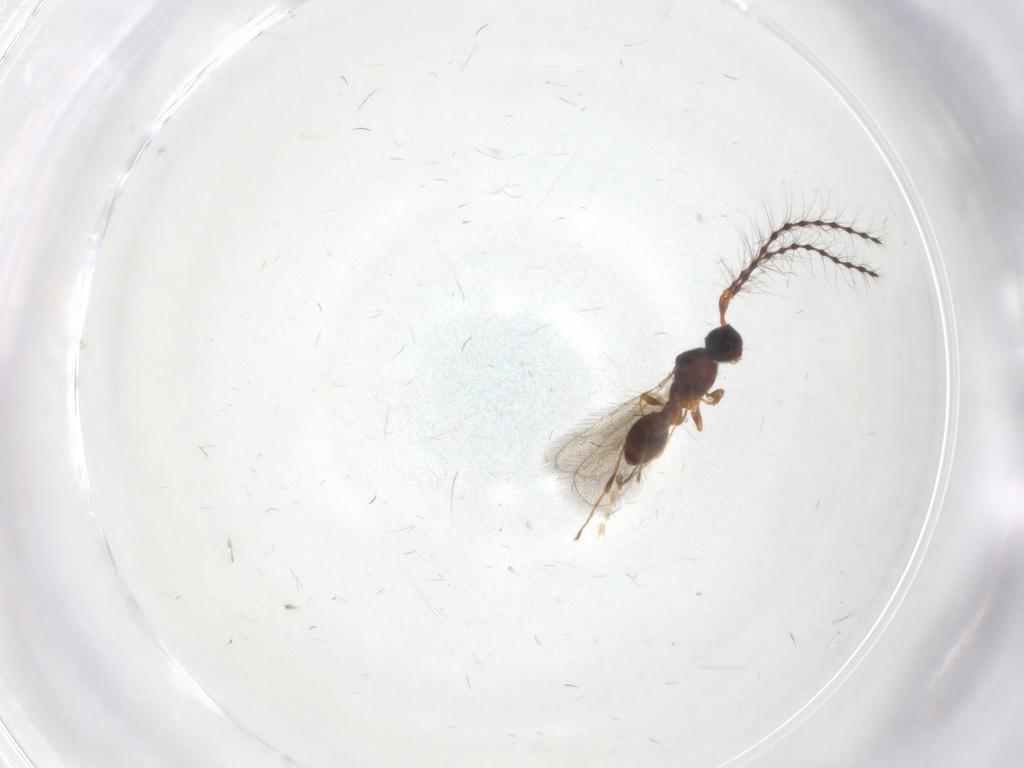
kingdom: Animalia
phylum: Arthropoda
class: Insecta
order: Hymenoptera
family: Diapriidae
